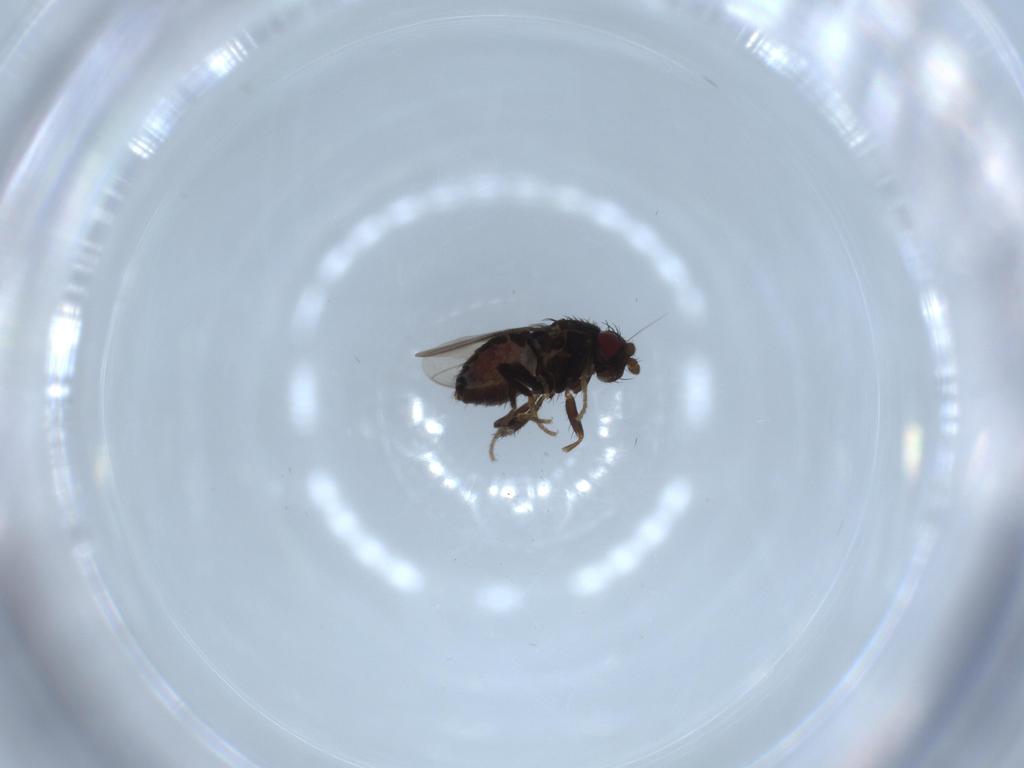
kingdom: Animalia
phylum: Arthropoda
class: Insecta
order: Diptera
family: Sphaeroceridae
